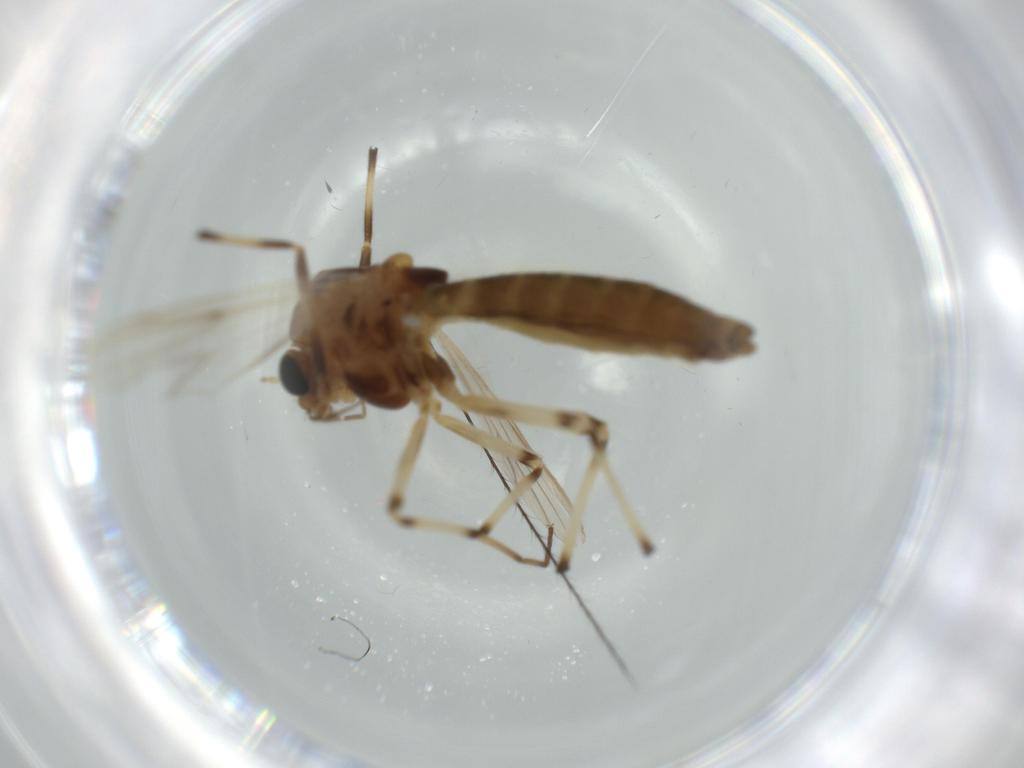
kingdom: Animalia
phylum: Arthropoda
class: Insecta
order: Diptera
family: Chironomidae
